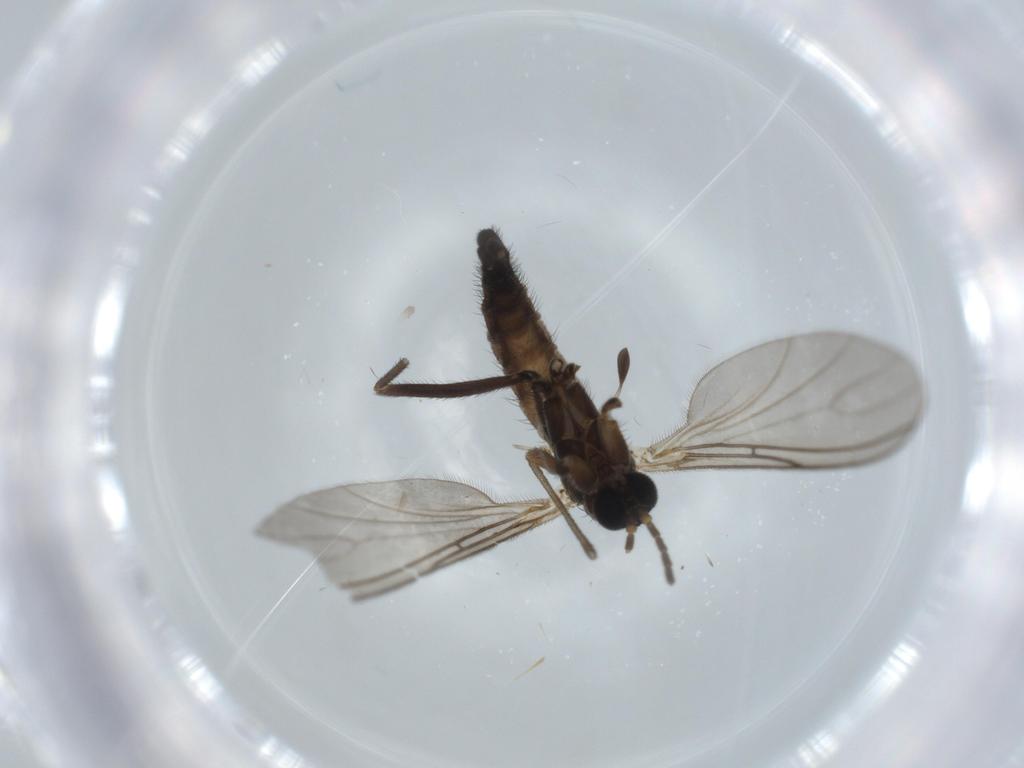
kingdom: Animalia
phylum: Arthropoda
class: Insecta
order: Diptera
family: Sciaridae
